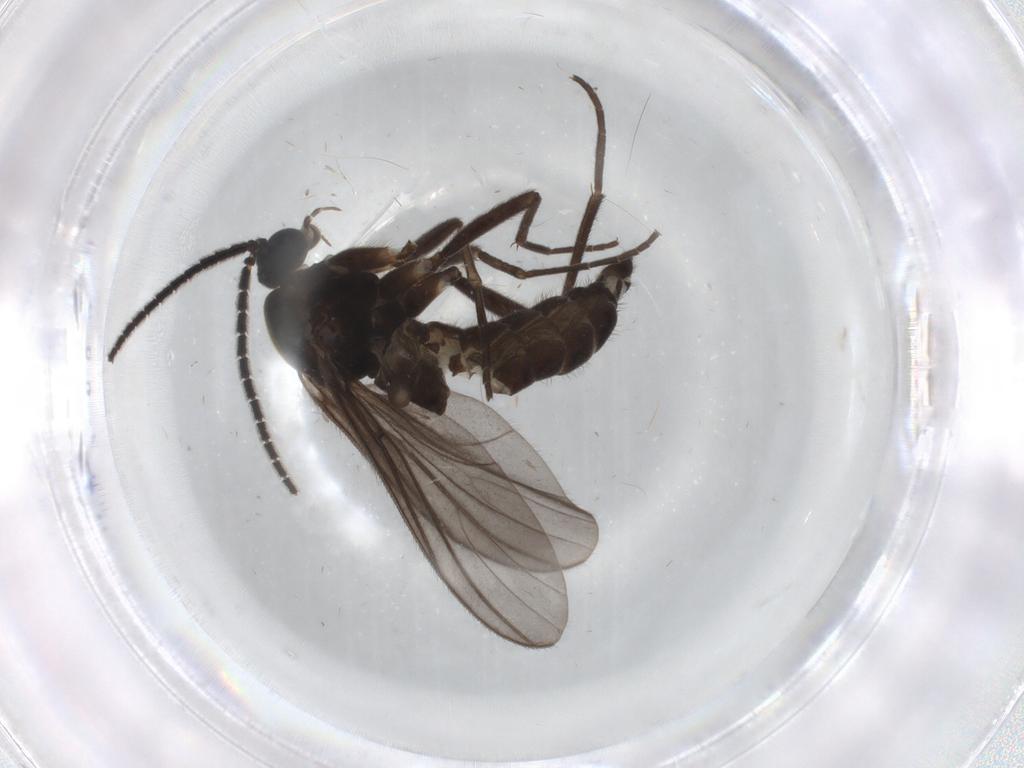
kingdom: Animalia
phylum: Arthropoda
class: Insecta
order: Diptera
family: Sciaridae
